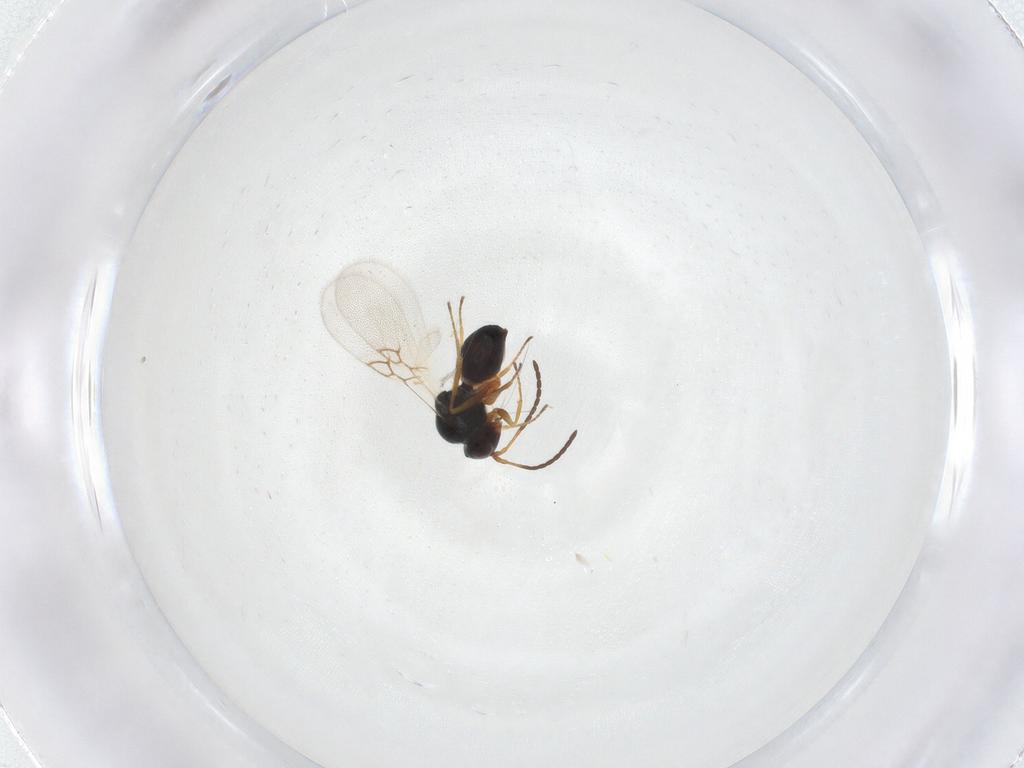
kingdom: Animalia
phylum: Arthropoda
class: Insecta
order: Hymenoptera
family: Figitidae
